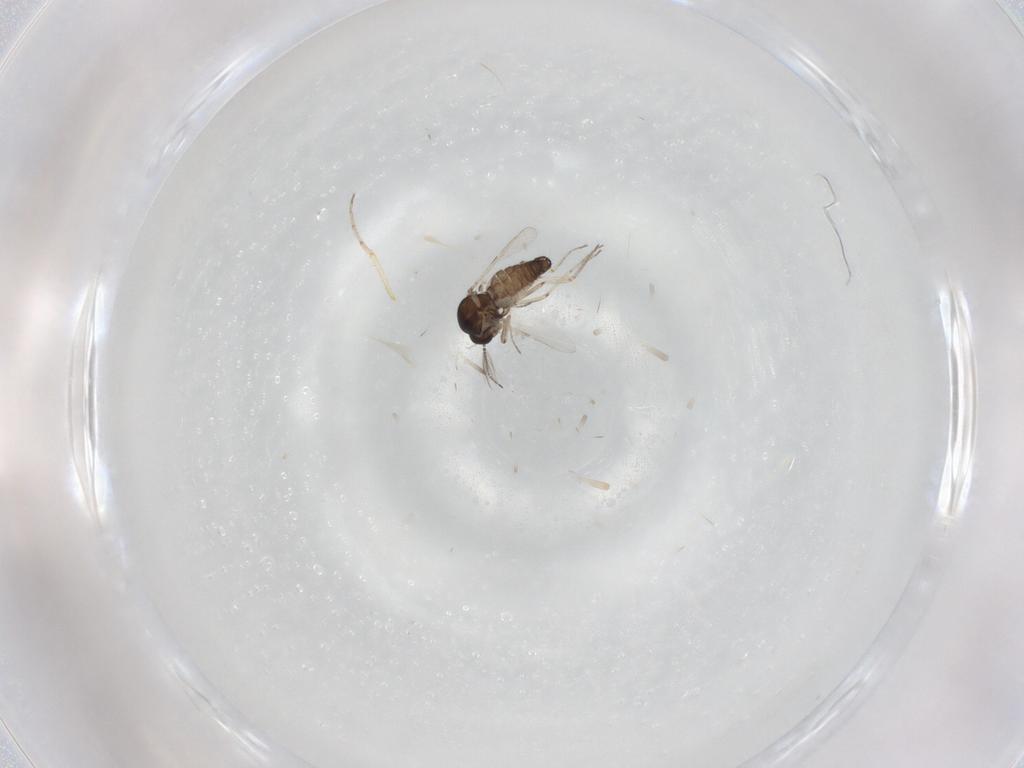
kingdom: Animalia
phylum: Arthropoda
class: Insecta
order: Diptera
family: Ceratopogonidae
